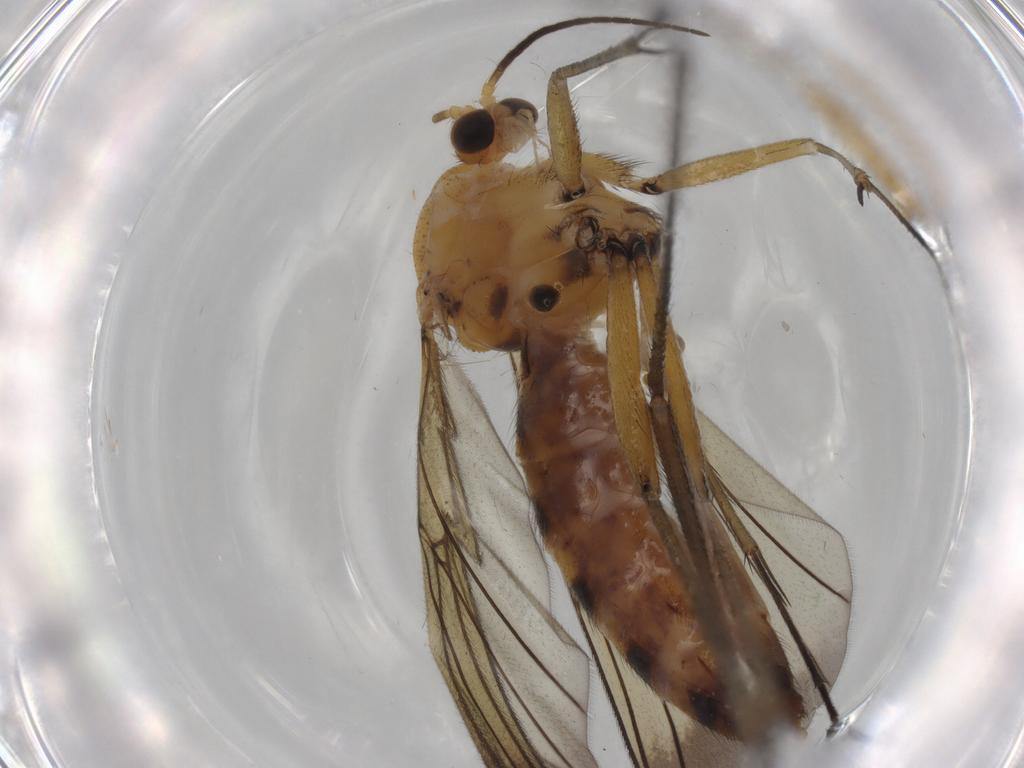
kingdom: Animalia
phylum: Arthropoda
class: Insecta
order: Diptera
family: Limoniidae
